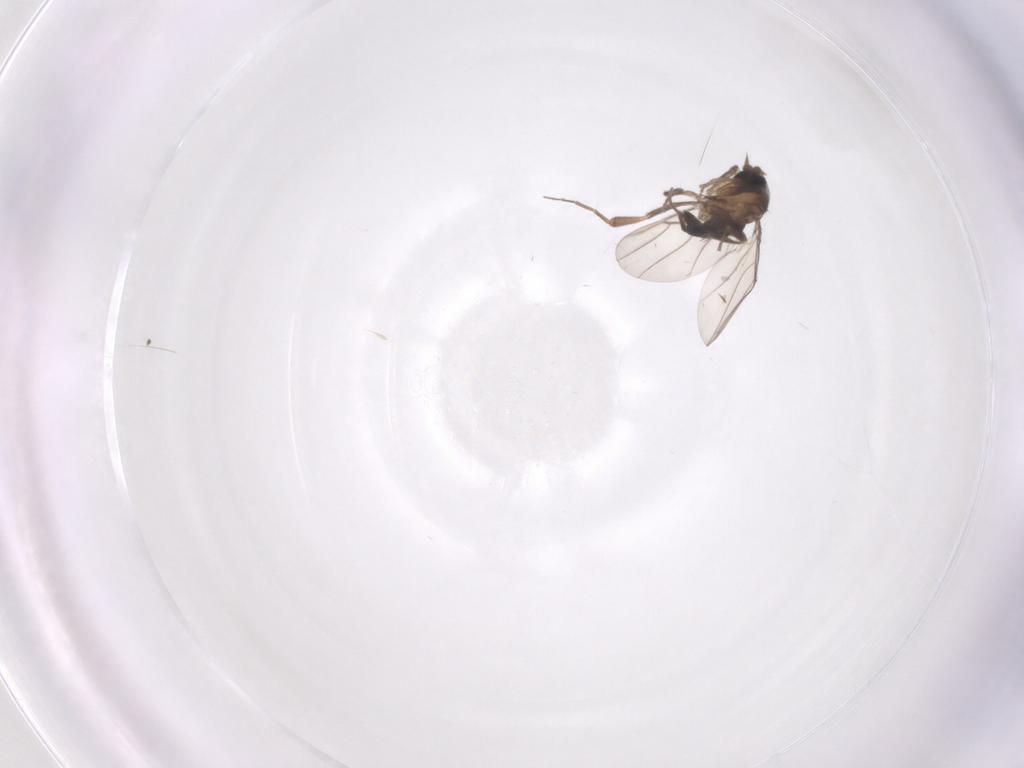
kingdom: Animalia
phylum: Arthropoda
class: Insecta
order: Diptera
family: Phoridae
